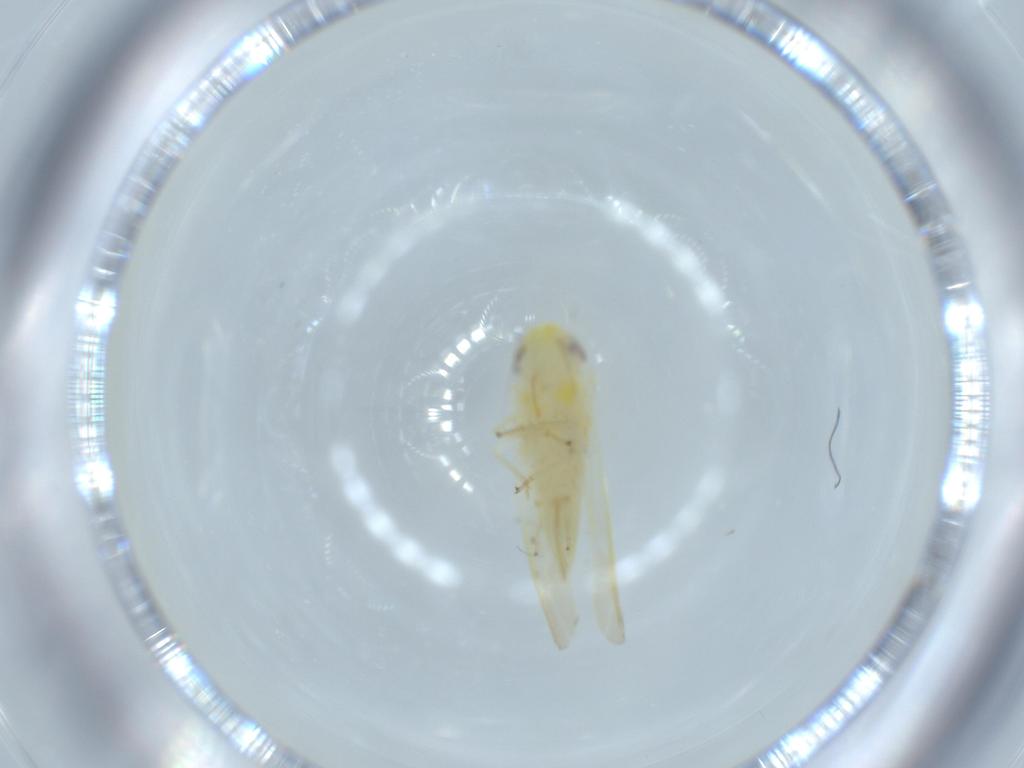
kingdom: Animalia
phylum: Arthropoda
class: Insecta
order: Hemiptera
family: Cicadellidae
